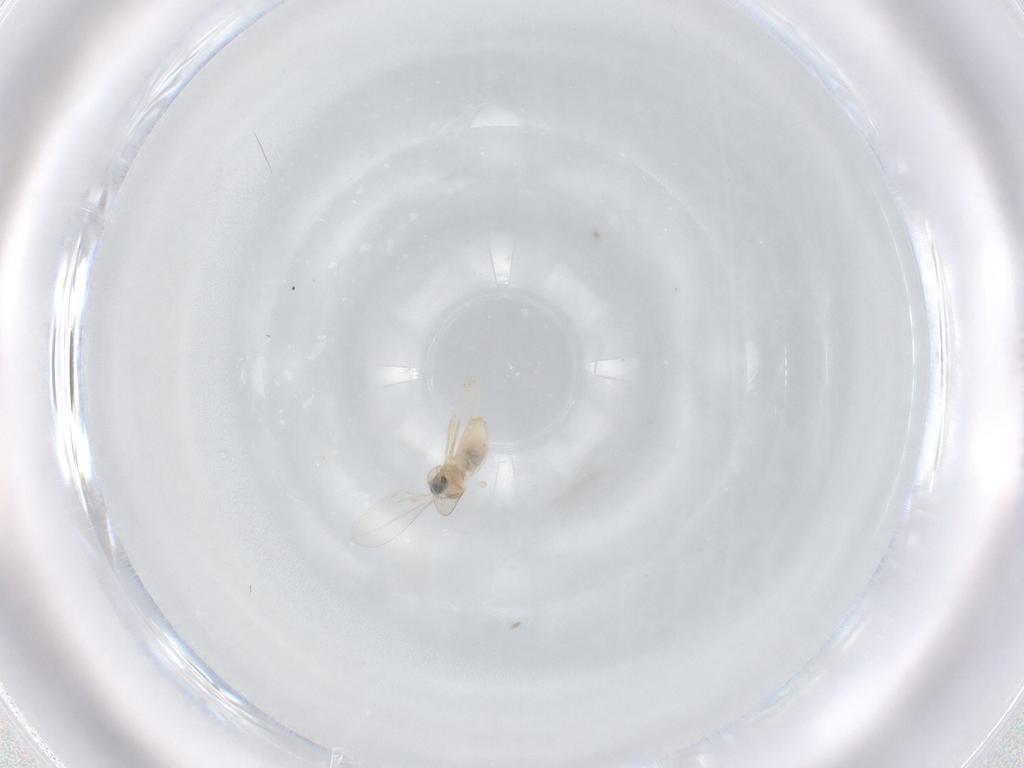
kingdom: Animalia
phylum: Arthropoda
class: Insecta
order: Diptera
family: Cecidomyiidae
